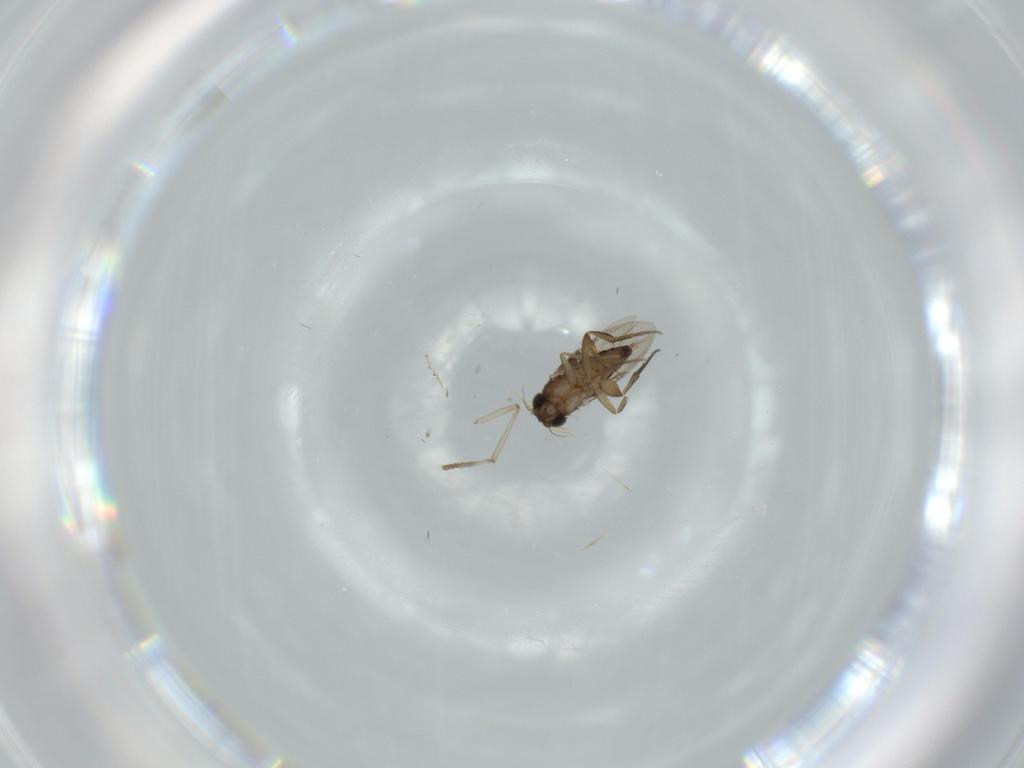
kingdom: Animalia
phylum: Arthropoda
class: Insecta
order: Diptera
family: Phoridae
